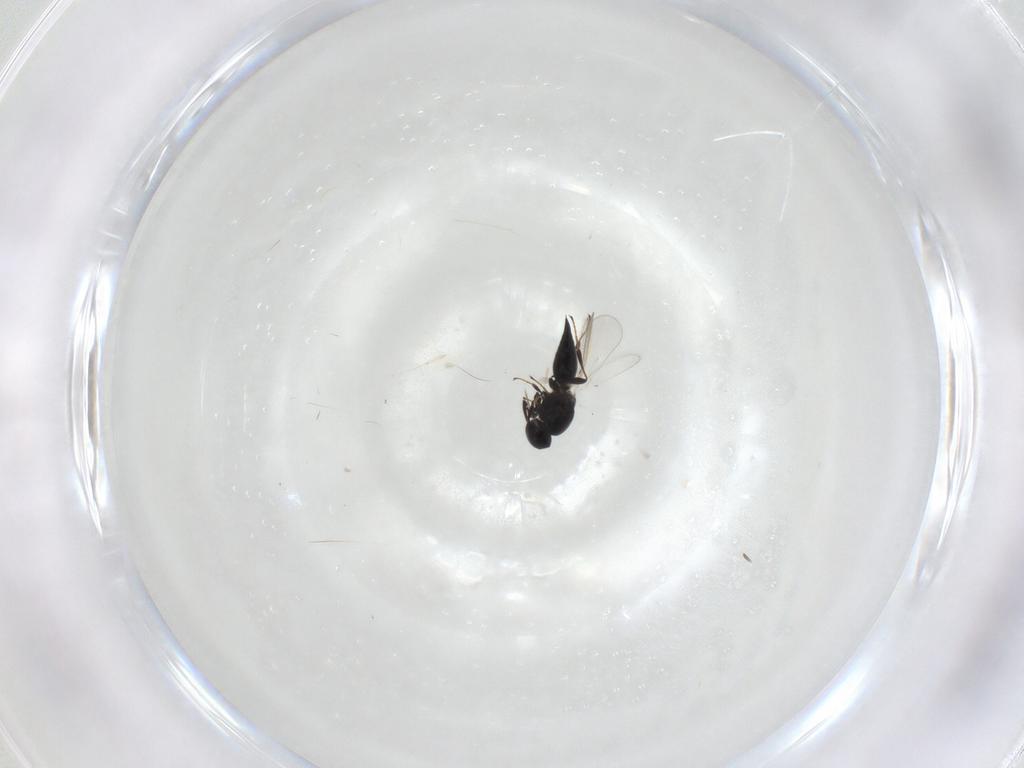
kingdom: Animalia
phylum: Arthropoda
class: Insecta
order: Hymenoptera
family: Platygastridae
